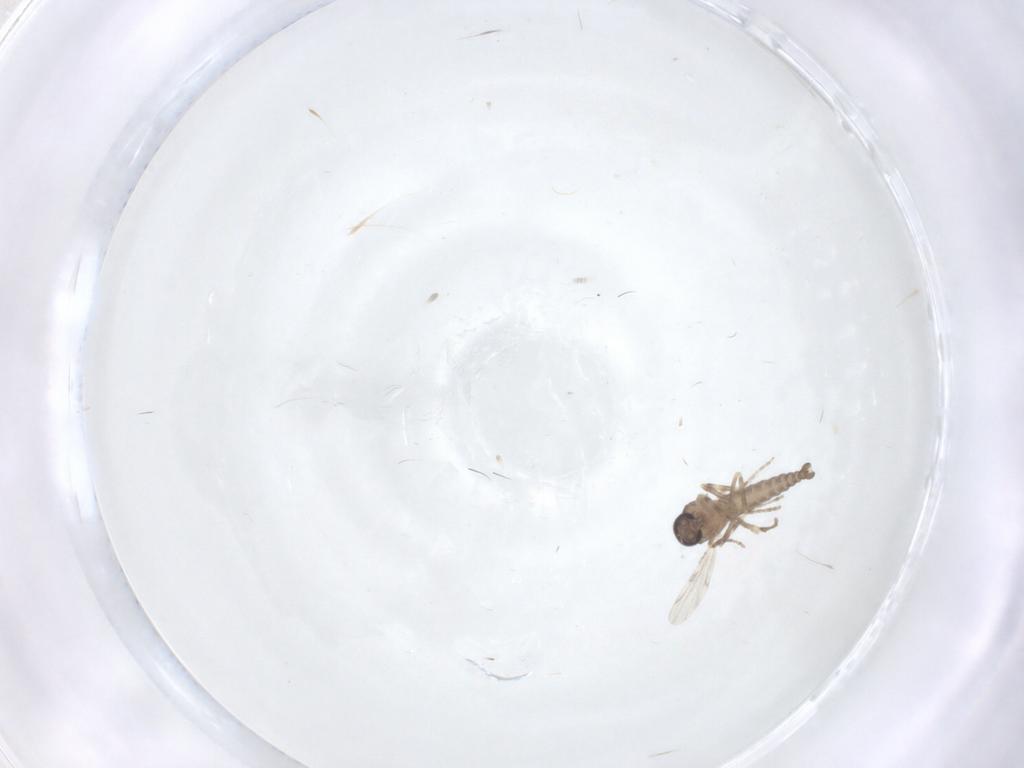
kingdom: Animalia
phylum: Arthropoda
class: Insecta
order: Diptera
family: Ceratopogonidae
